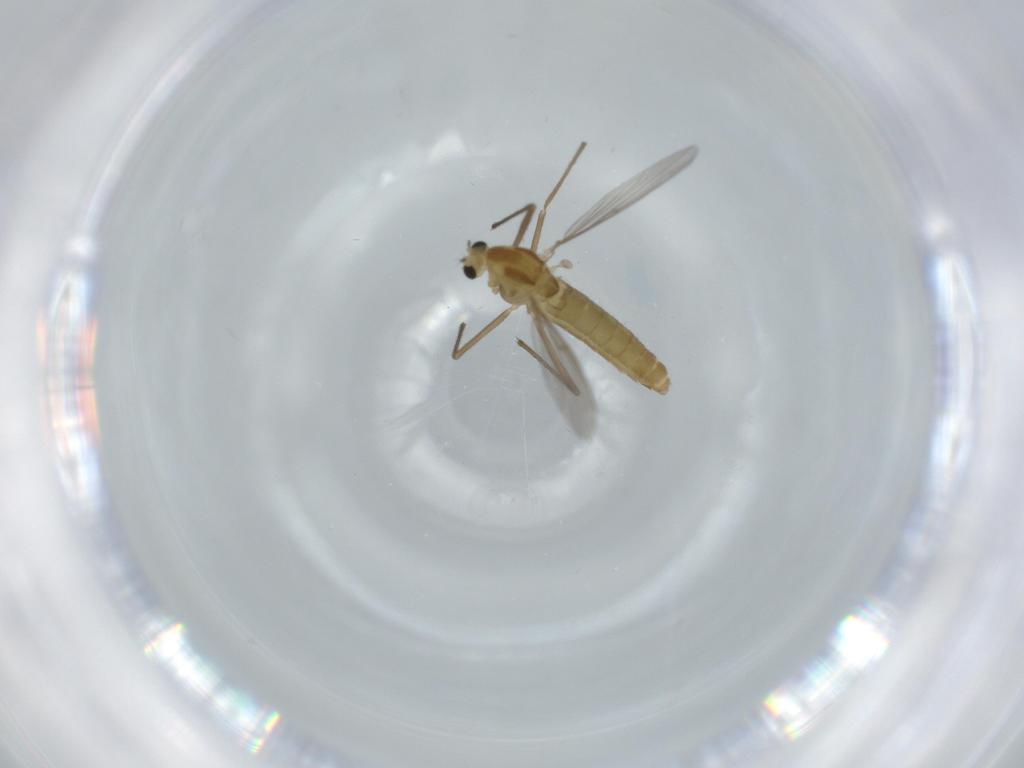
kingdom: Animalia
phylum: Arthropoda
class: Insecta
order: Diptera
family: Chironomidae
